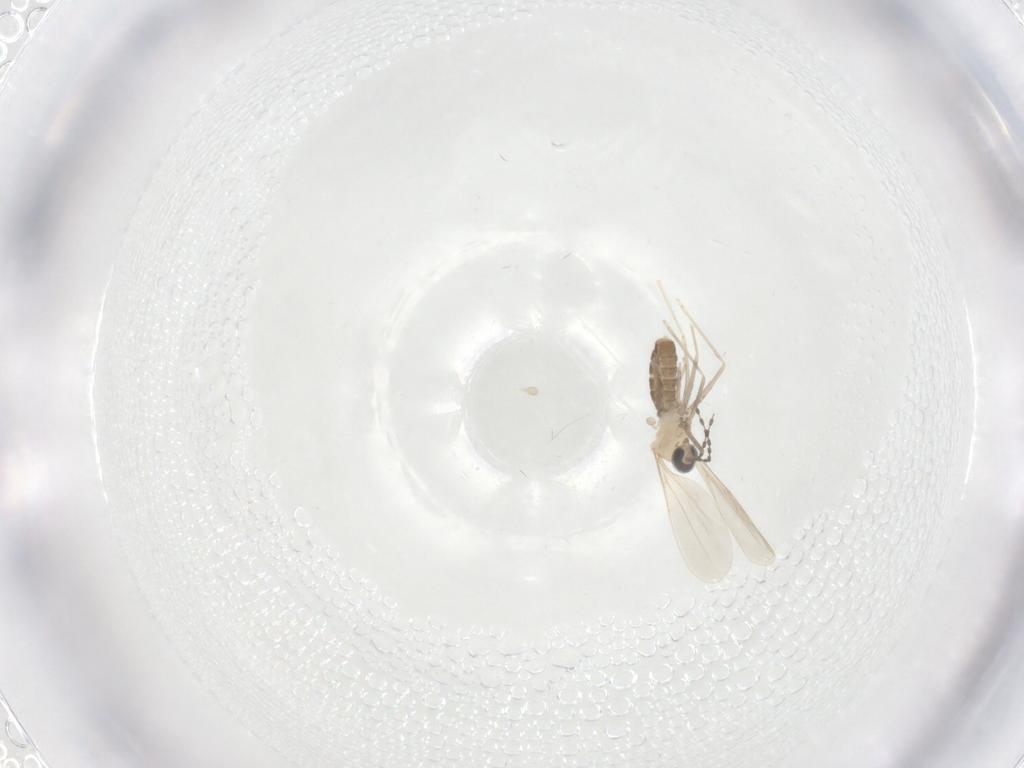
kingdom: Animalia
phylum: Arthropoda
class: Insecta
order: Diptera
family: Cecidomyiidae
